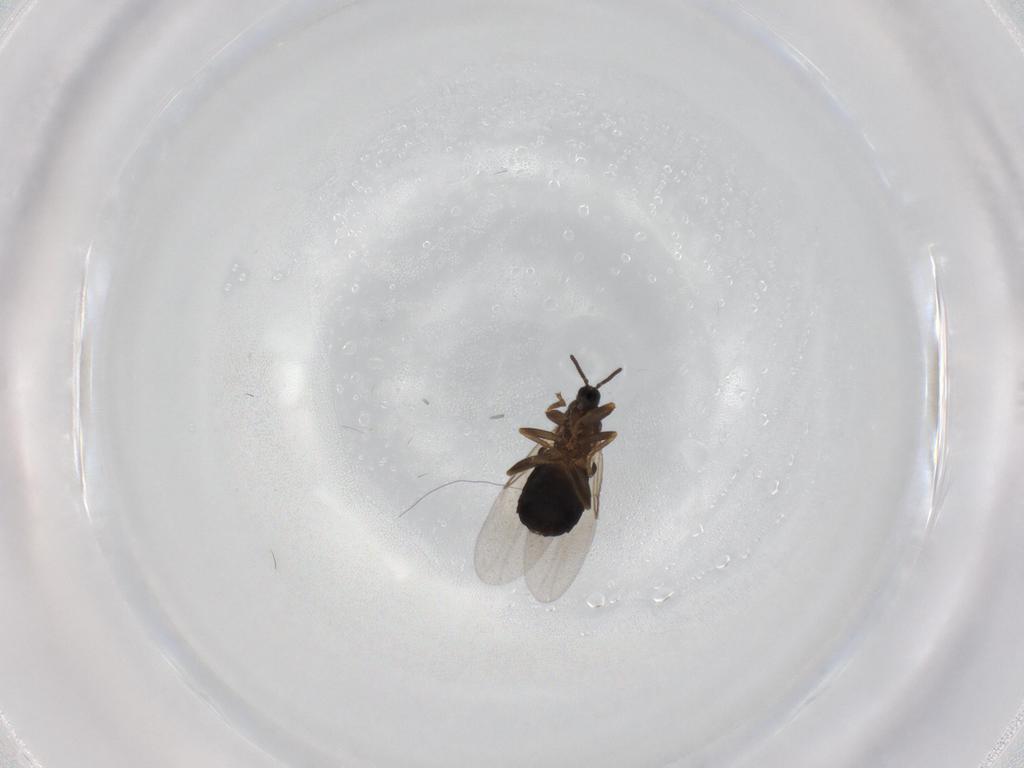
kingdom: Animalia
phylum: Arthropoda
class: Insecta
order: Diptera
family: Scatopsidae
